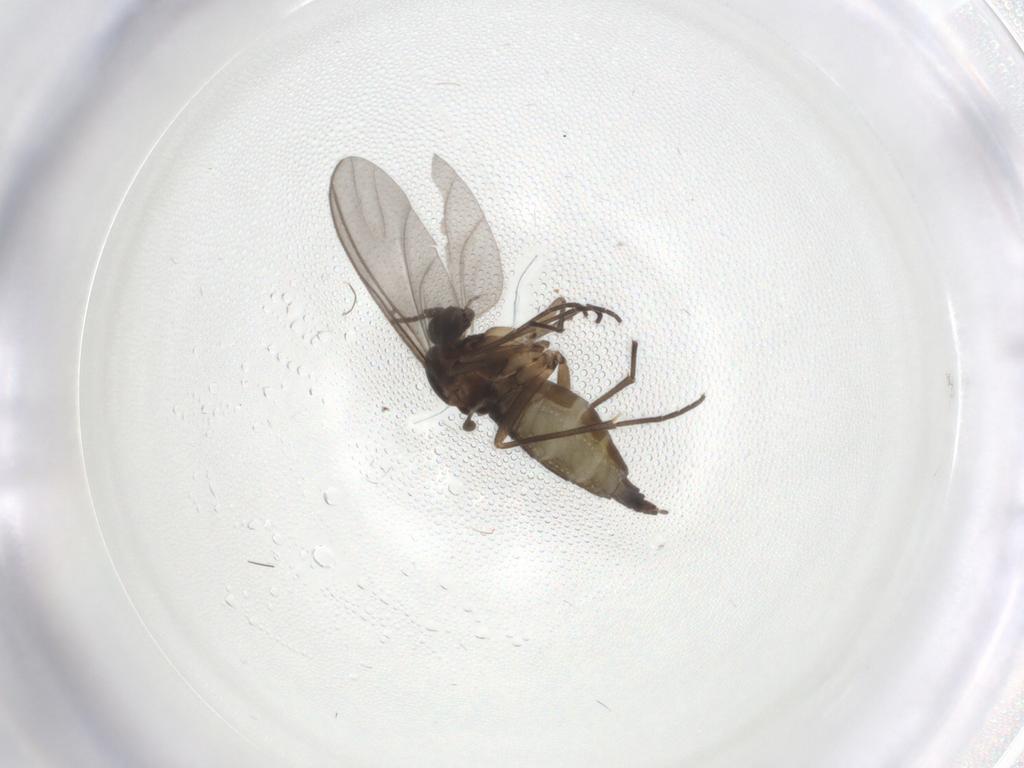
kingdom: Animalia
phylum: Arthropoda
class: Insecta
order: Diptera
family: Sciaridae
